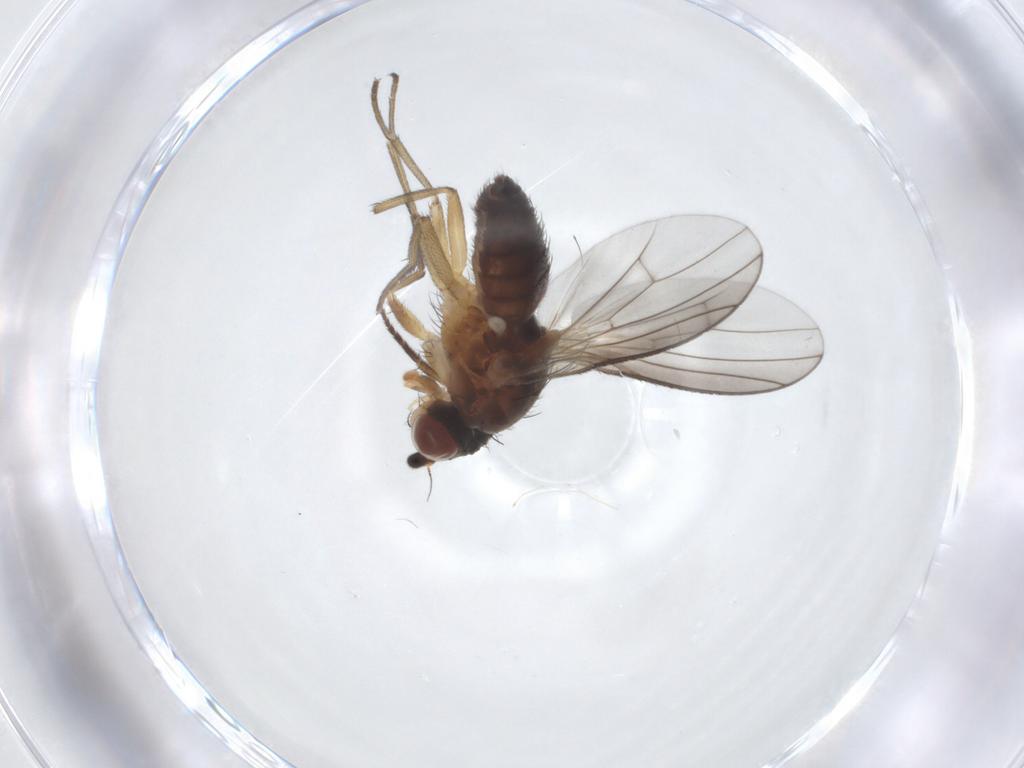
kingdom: Animalia
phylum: Arthropoda
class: Insecta
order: Diptera
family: Heleomyzidae
